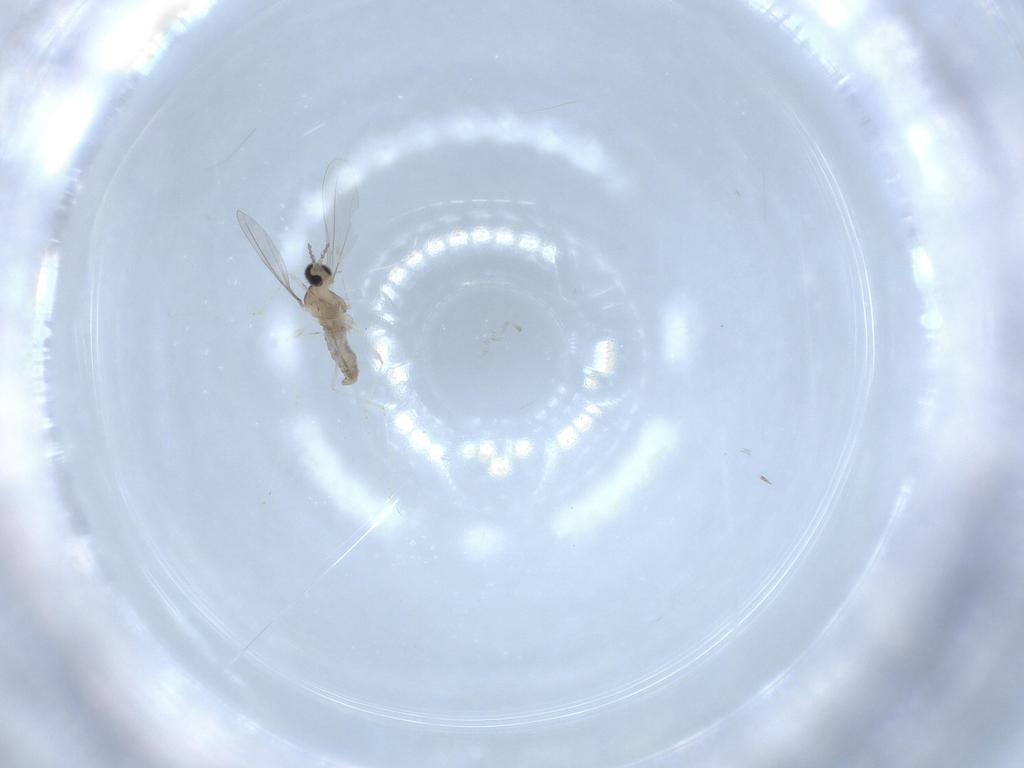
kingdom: Animalia
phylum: Arthropoda
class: Insecta
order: Diptera
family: Cecidomyiidae
